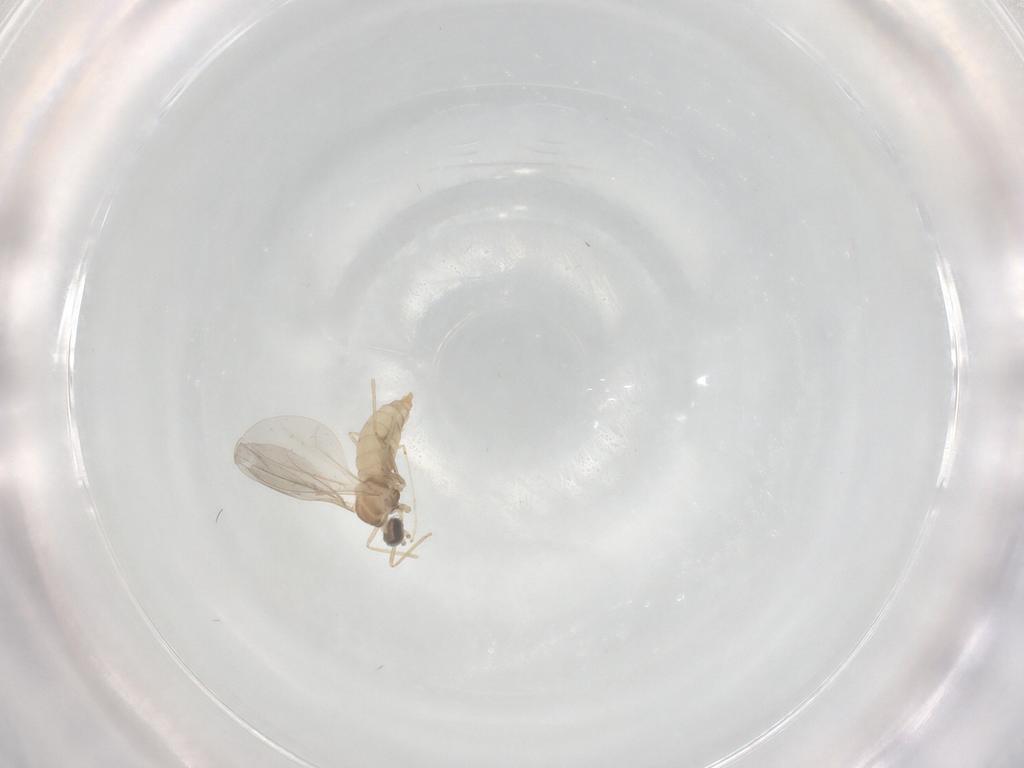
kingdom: Animalia
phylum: Arthropoda
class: Insecta
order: Diptera
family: Cecidomyiidae
